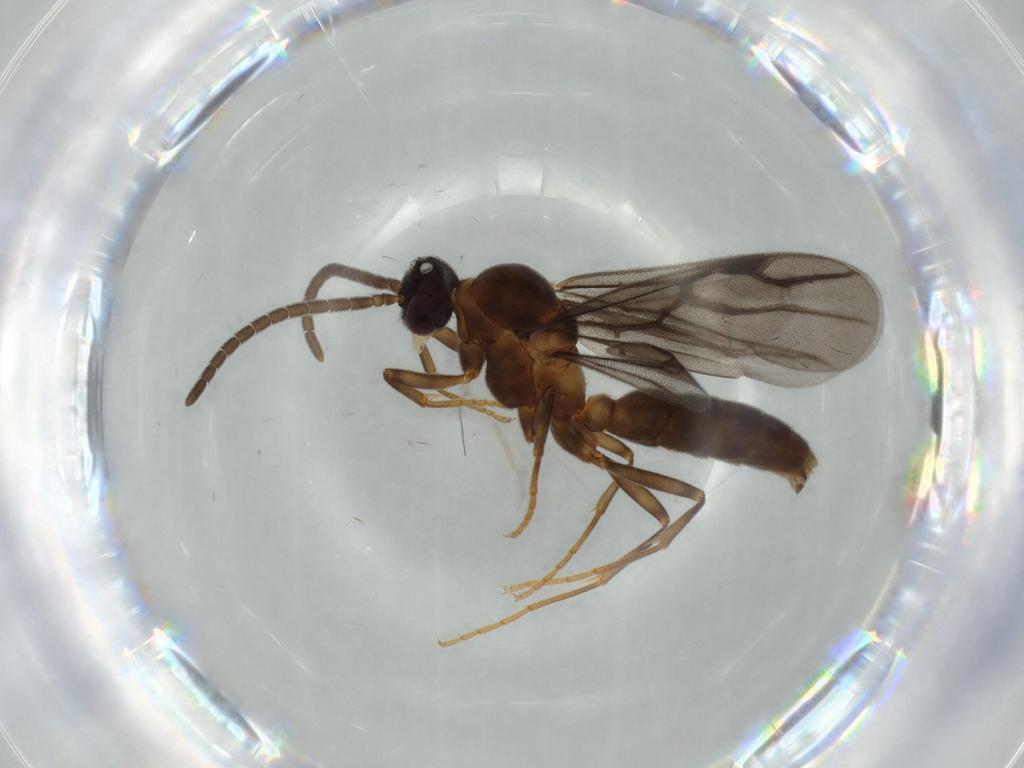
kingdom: Animalia
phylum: Arthropoda
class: Insecta
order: Hymenoptera
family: Formicidae
